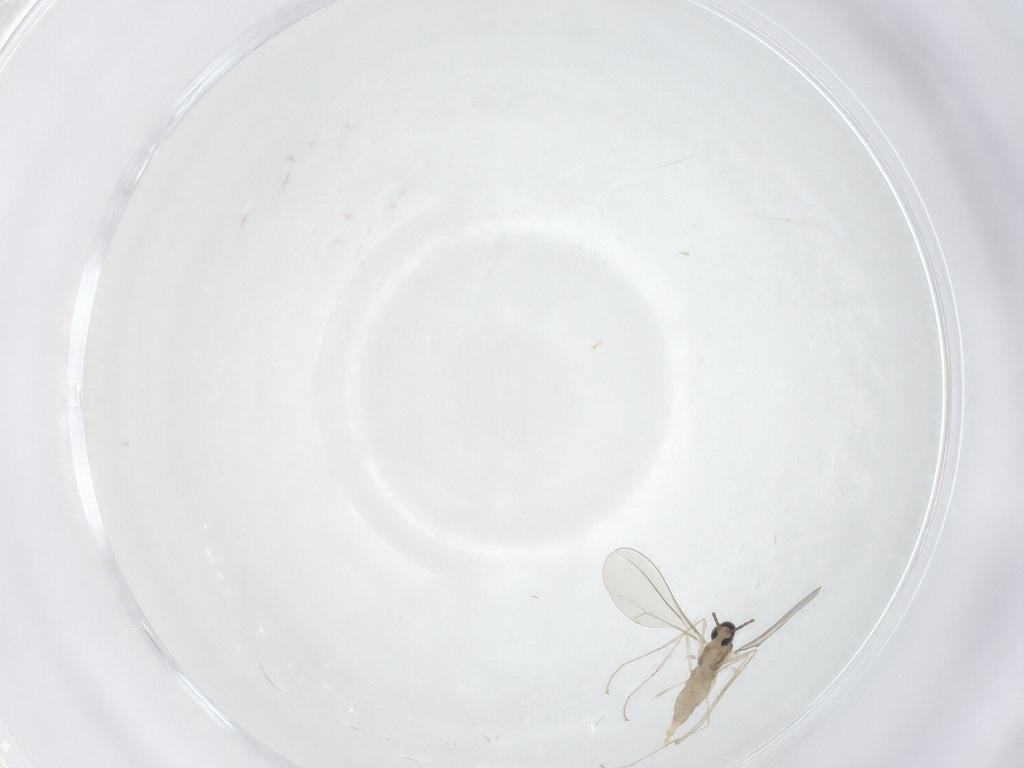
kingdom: Animalia
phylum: Arthropoda
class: Insecta
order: Diptera
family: Cecidomyiidae
